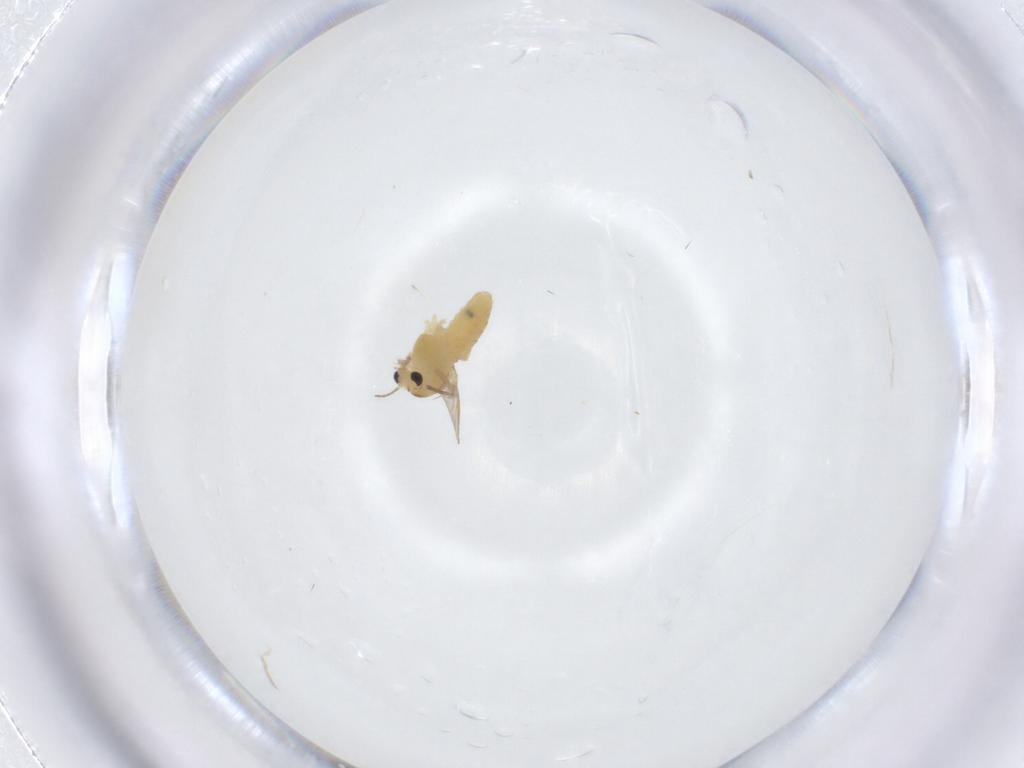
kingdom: Animalia
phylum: Arthropoda
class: Insecta
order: Diptera
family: Chironomidae
